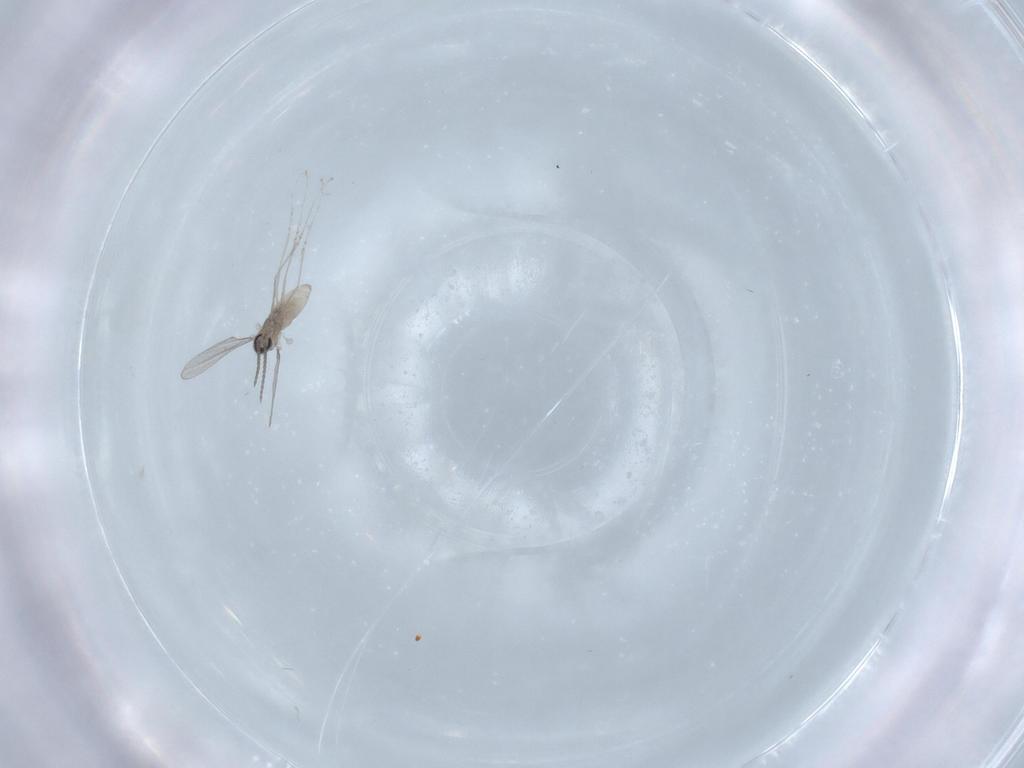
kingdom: Animalia
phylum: Arthropoda
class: Insecta
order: Diptera
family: Cecidomyiidae
